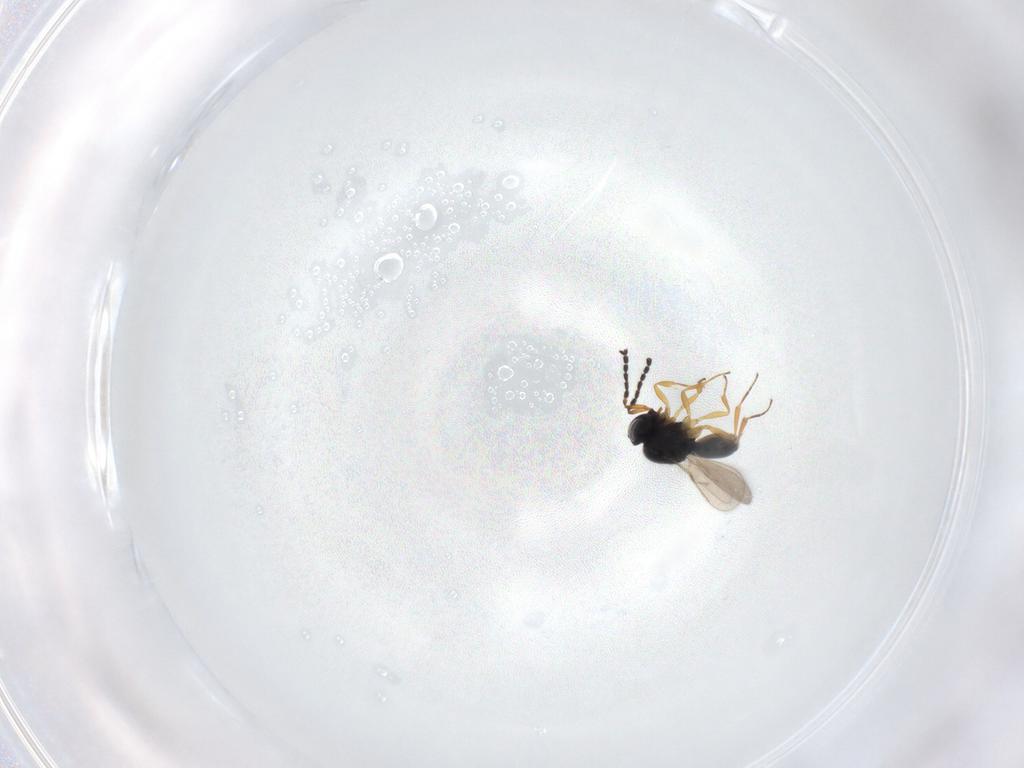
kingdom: Animalia
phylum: Arthropoda
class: Insecta
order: Hymenoptera
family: Scelionidae
